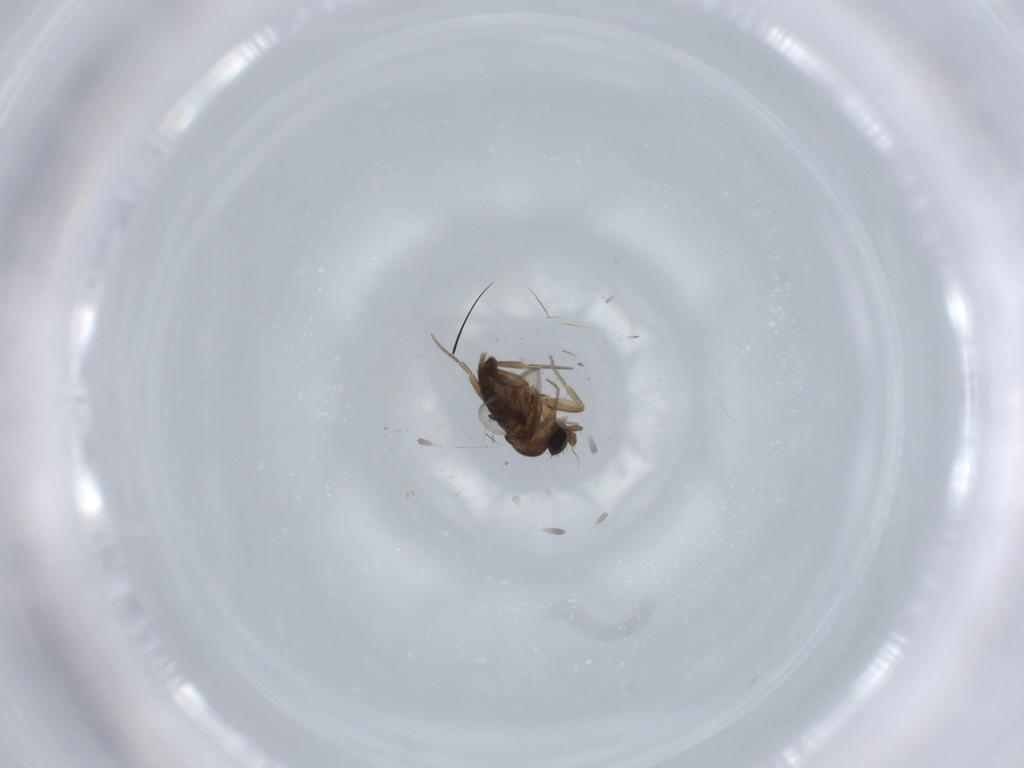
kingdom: Animalia
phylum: Arthropoda
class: Insecta
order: Diptera
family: Phoridae
